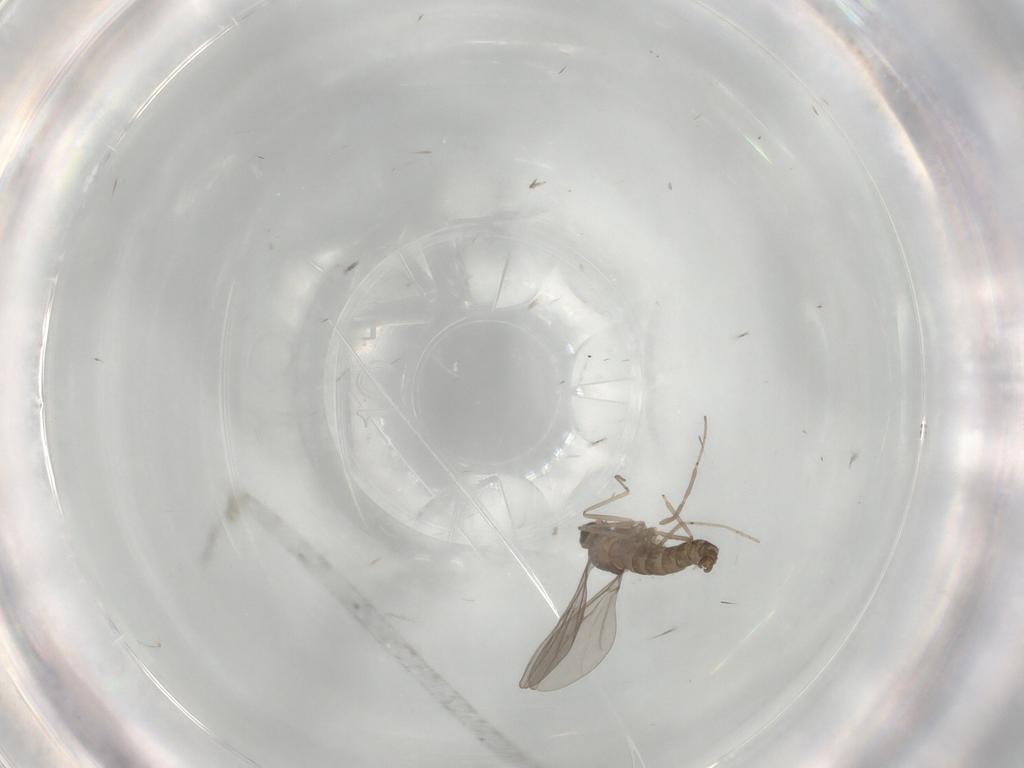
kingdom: Animalia
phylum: Arthropoda
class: Insecta
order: Diptera
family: Cecidomyiidae
